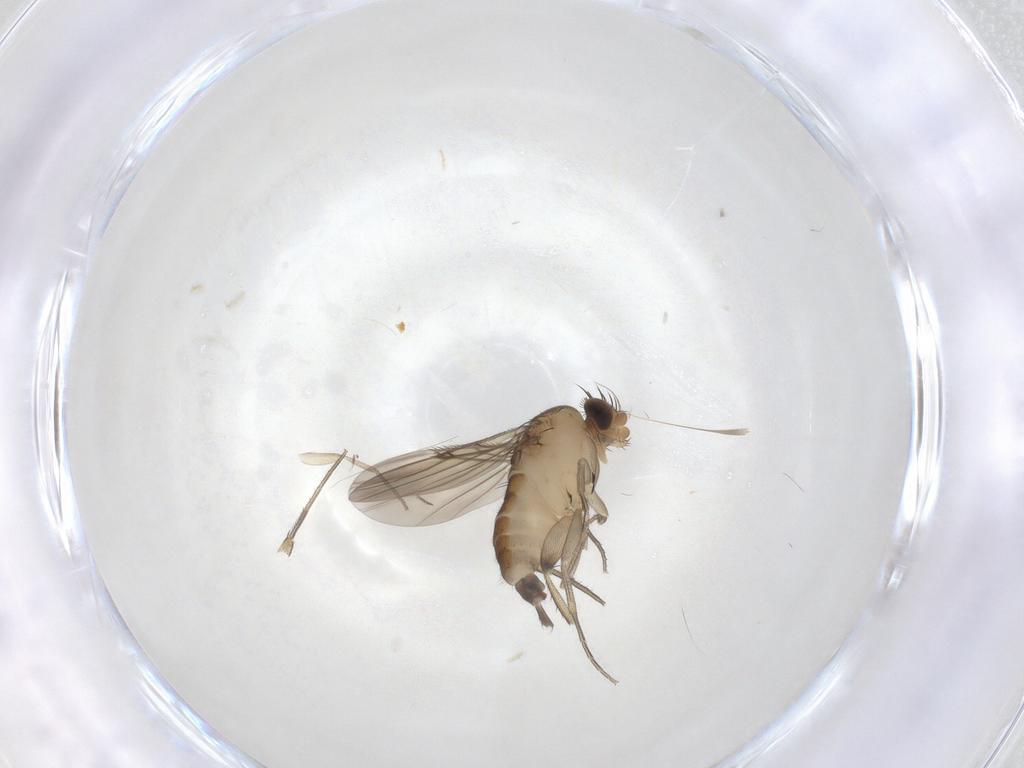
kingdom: Animalia
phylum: Arthropoda
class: Insecta
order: Diptera
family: Phoridae
